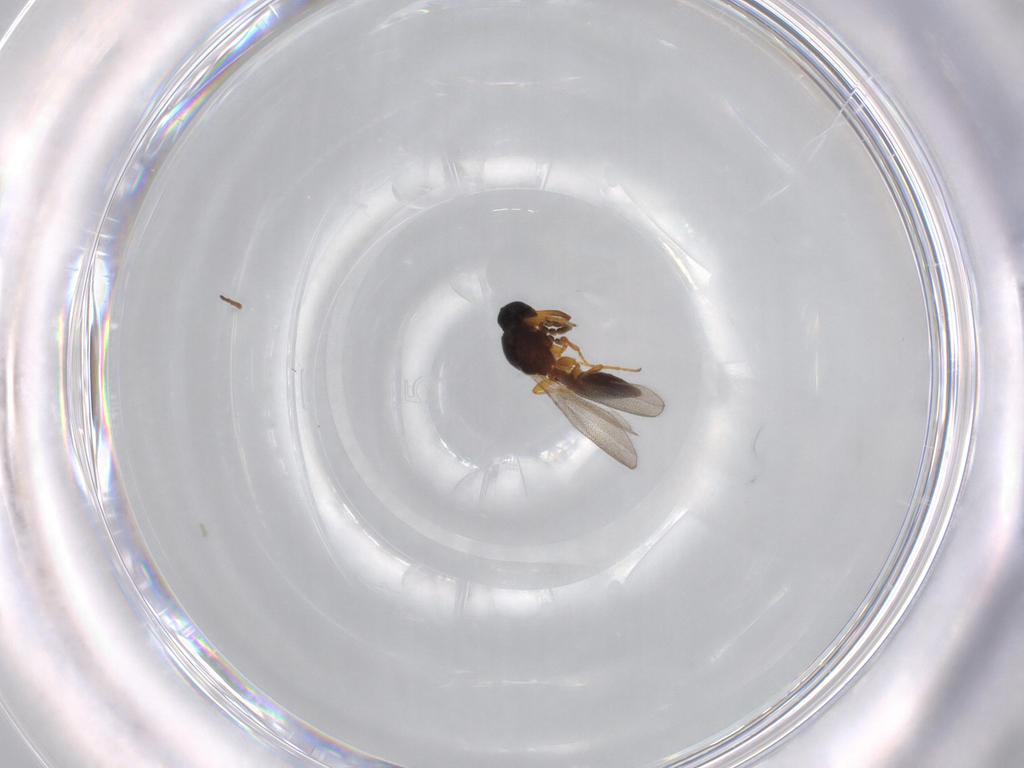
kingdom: Animalia
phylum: Arthropoda
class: Insecta
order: Hymenoptera
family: Platygastridae
